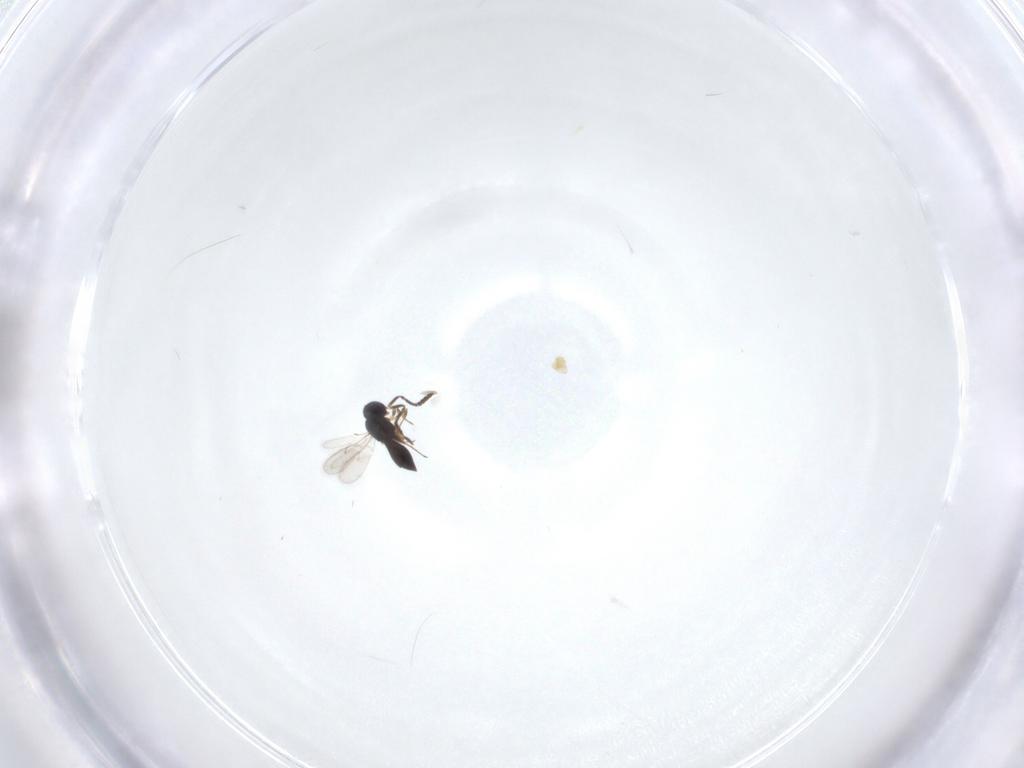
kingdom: Animalia
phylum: Arthropoda
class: Insecta
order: Hymenoptera
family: Scelionidae
